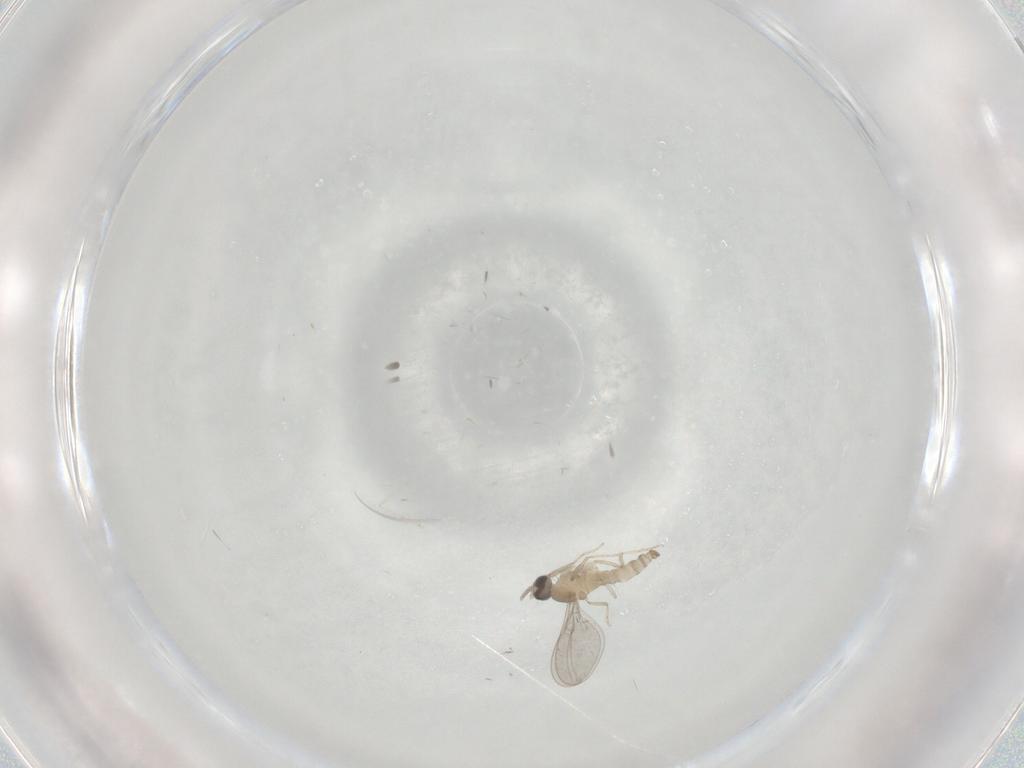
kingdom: Animalia
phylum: Arthropoda
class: Insecta
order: Diptera
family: Cecidomyiidae
